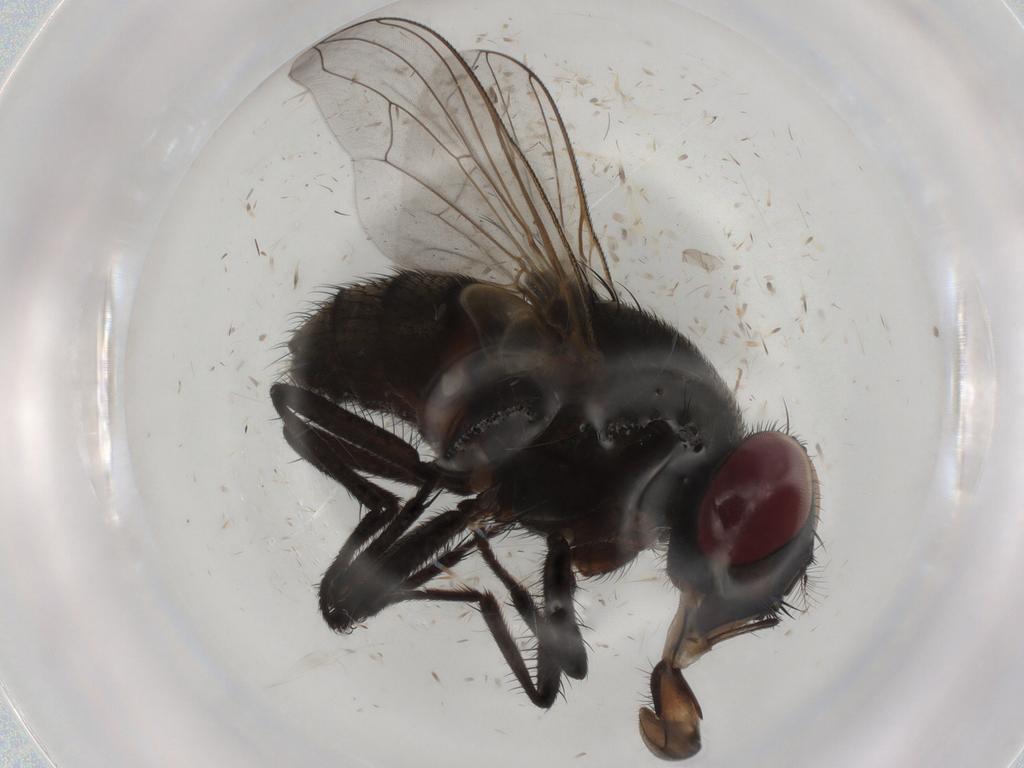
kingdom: Animalia
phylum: Arthropoda
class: Insecta
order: Diptera
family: Muscidae
